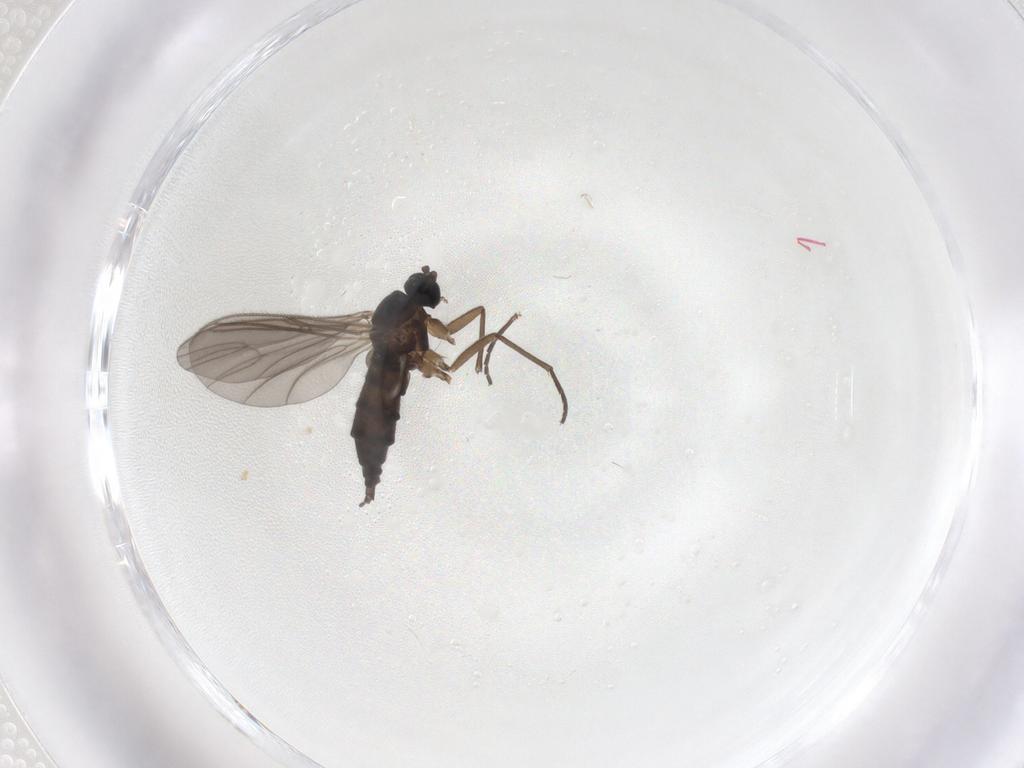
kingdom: Animalia
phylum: Arthropoda
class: Insecta
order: Diptera
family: Sciaridae
